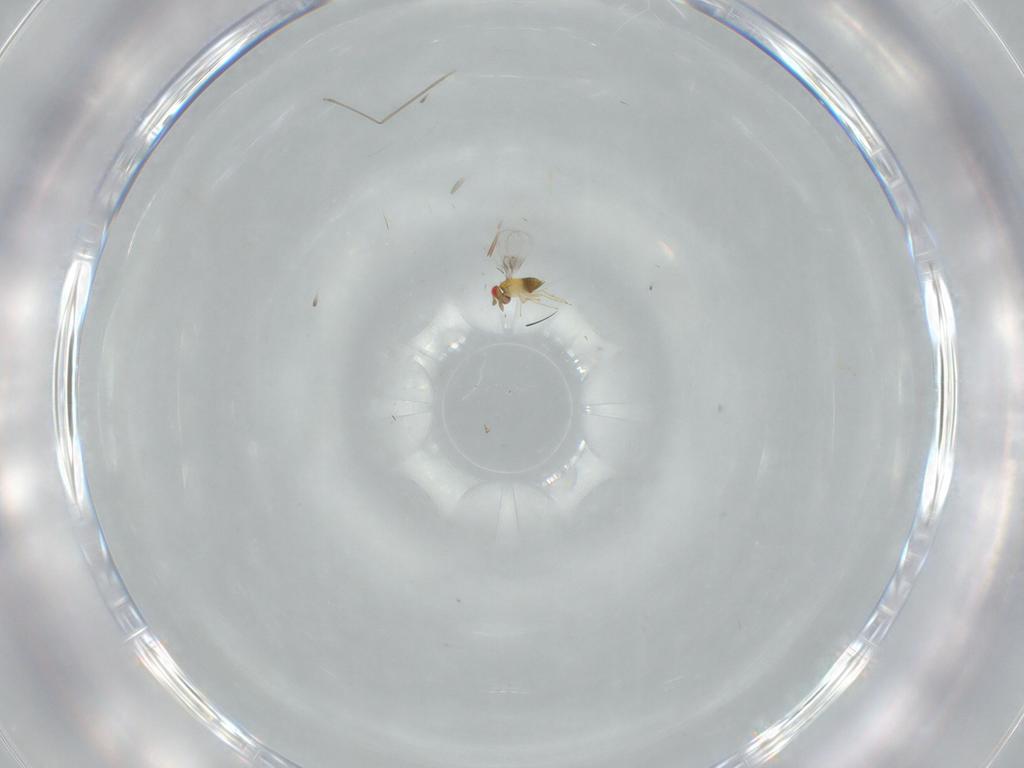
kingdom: Animalia
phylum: Arthropoda
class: Insecta
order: Hymenoptera
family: Trichogrammatidae
